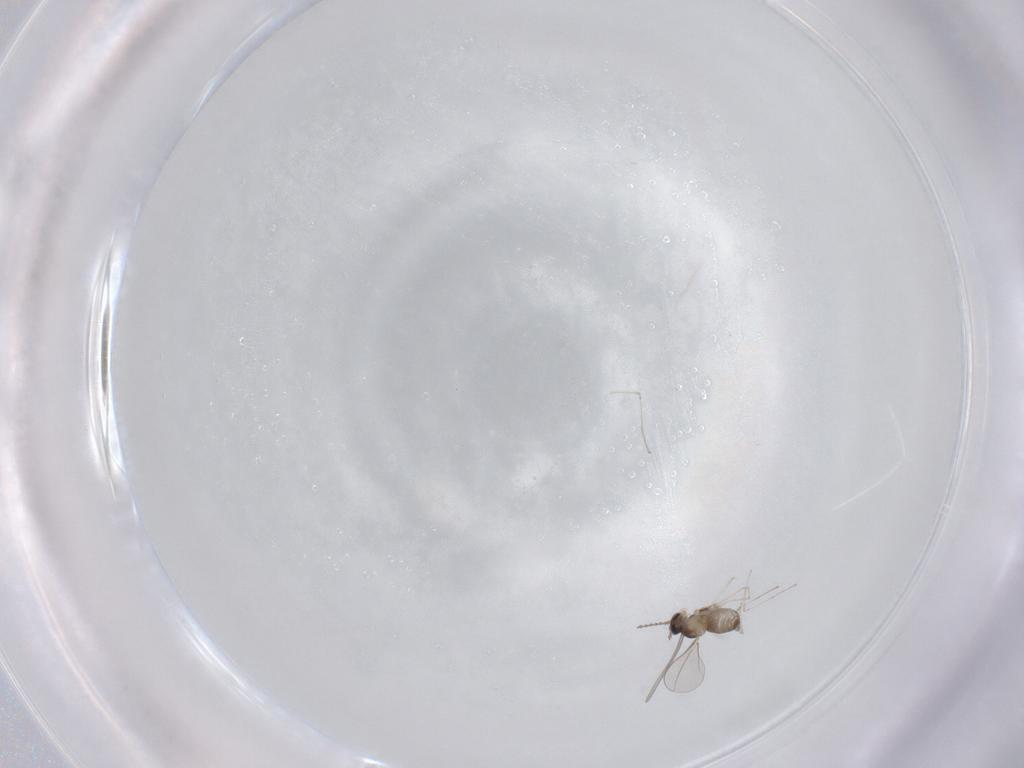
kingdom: Animalia
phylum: Arthropoda
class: Insecta
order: Diptera
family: Cecidomyiidae
